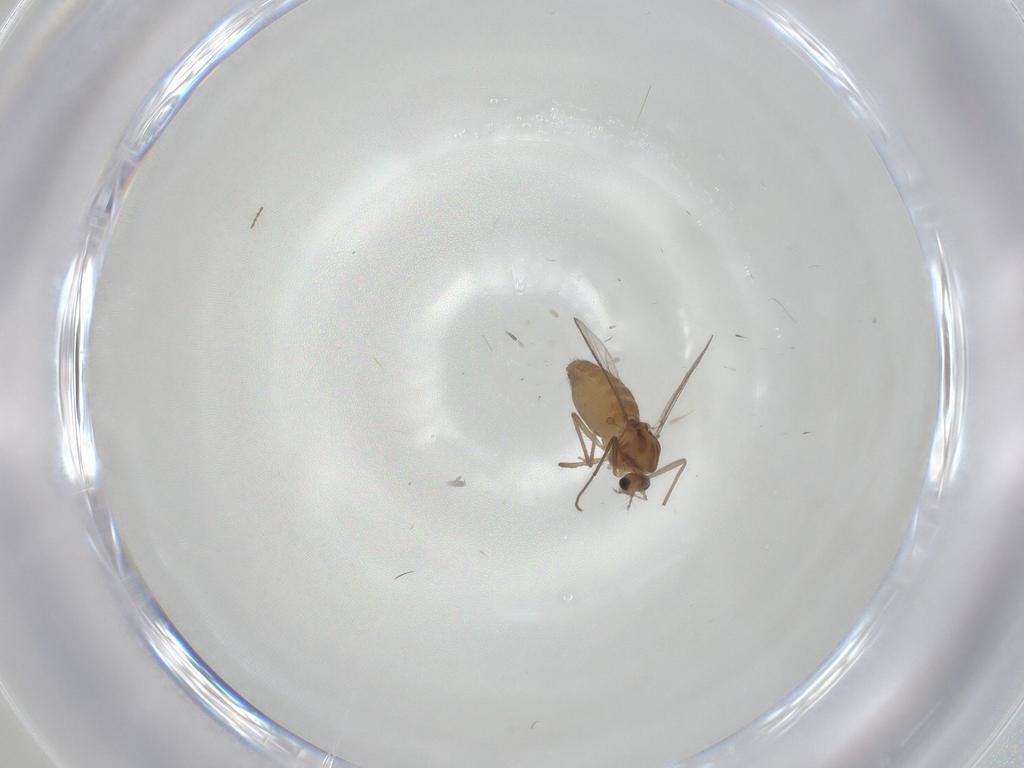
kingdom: Animalia
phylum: Arthropoda
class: Insecta
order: Diptera
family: Chironomidae
